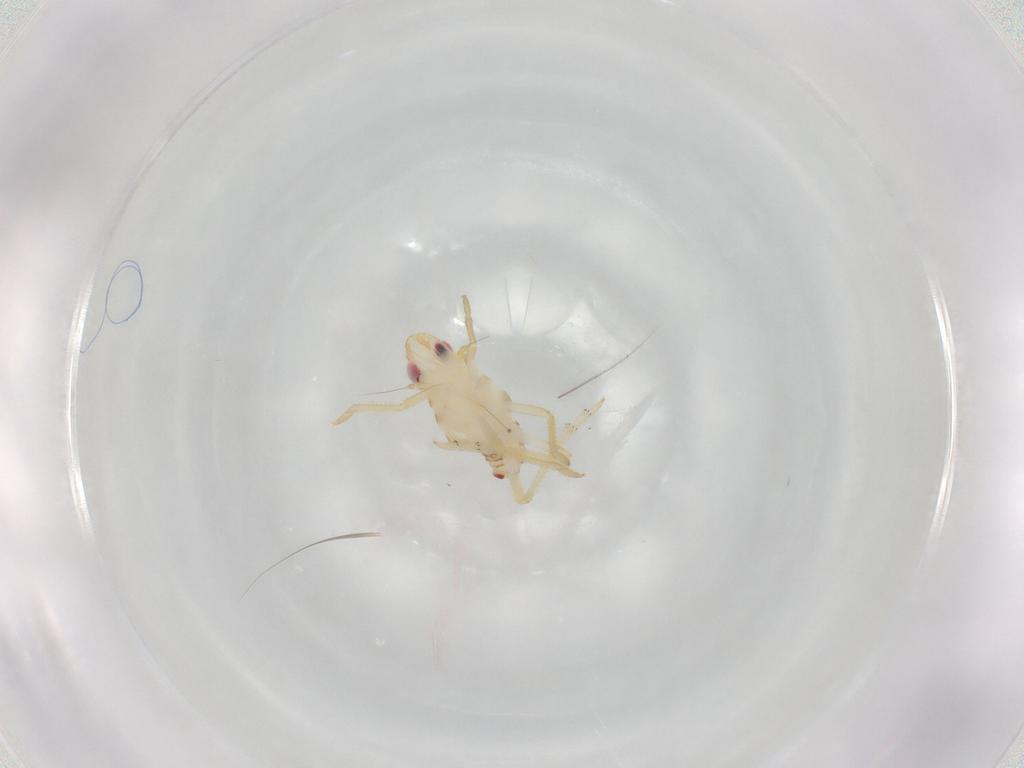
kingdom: Animalia
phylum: Arthropoda
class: Insecta
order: Hemiptera
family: Fulgoroidea_incertae_sedis
